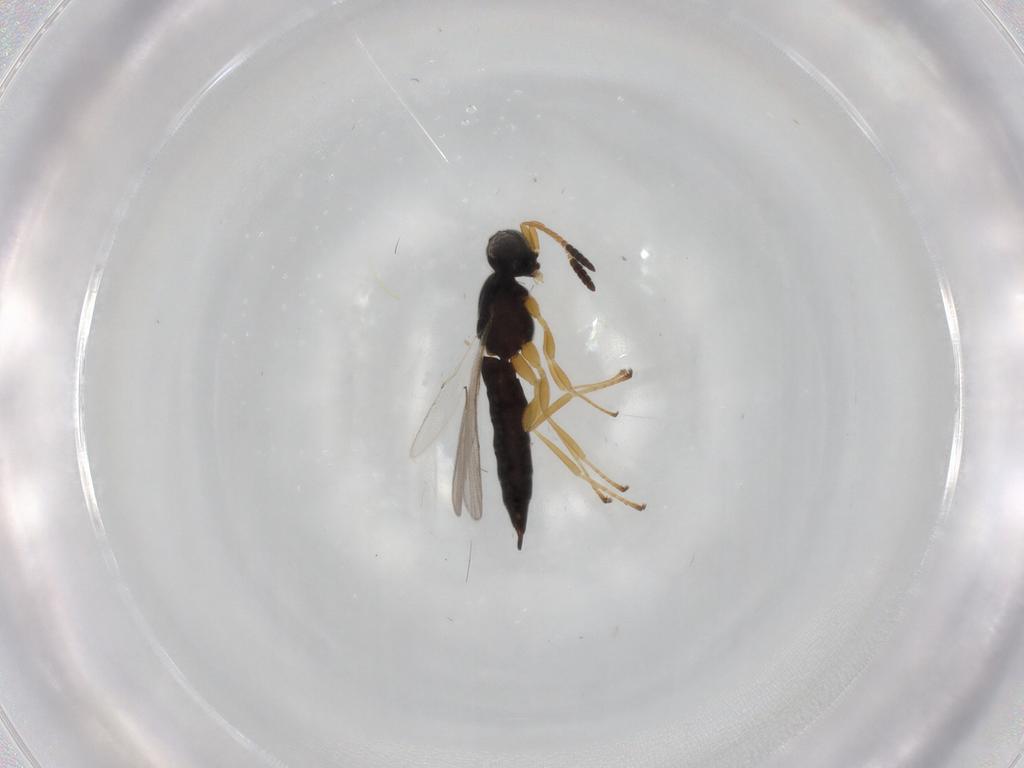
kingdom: Animalia
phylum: Arthropoda
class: Insecta
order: Hymenoptera
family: Scelionidae
